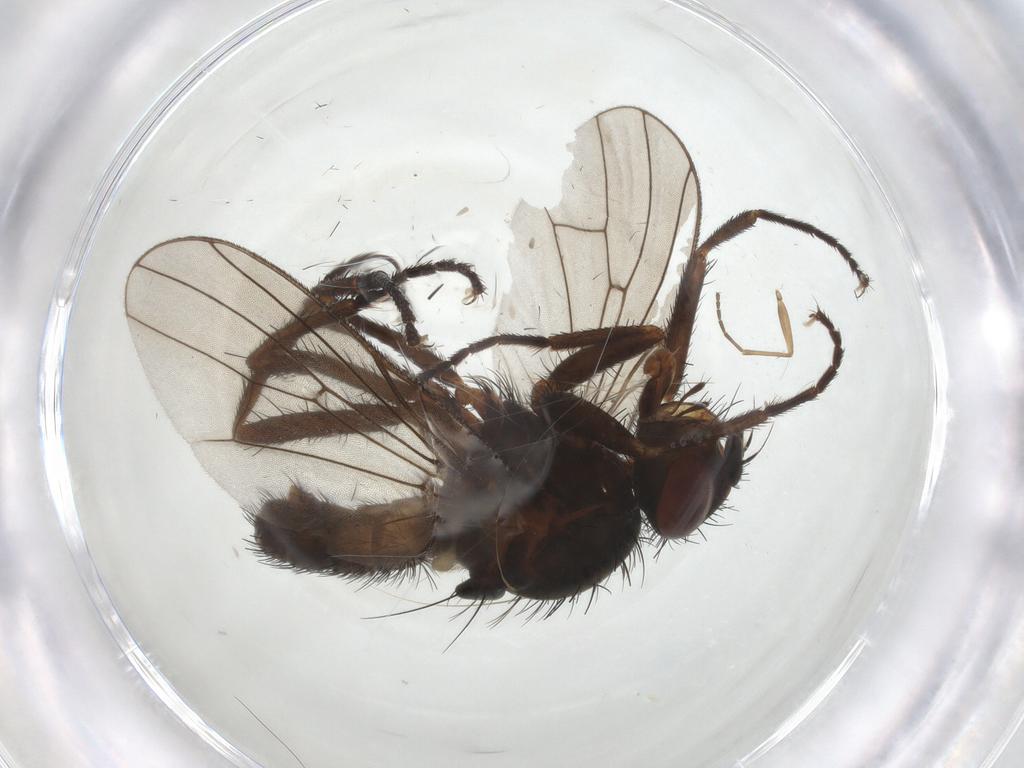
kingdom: Animalia
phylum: Arthropoda
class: Insecta
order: Diptera
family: Anthomyiidae
